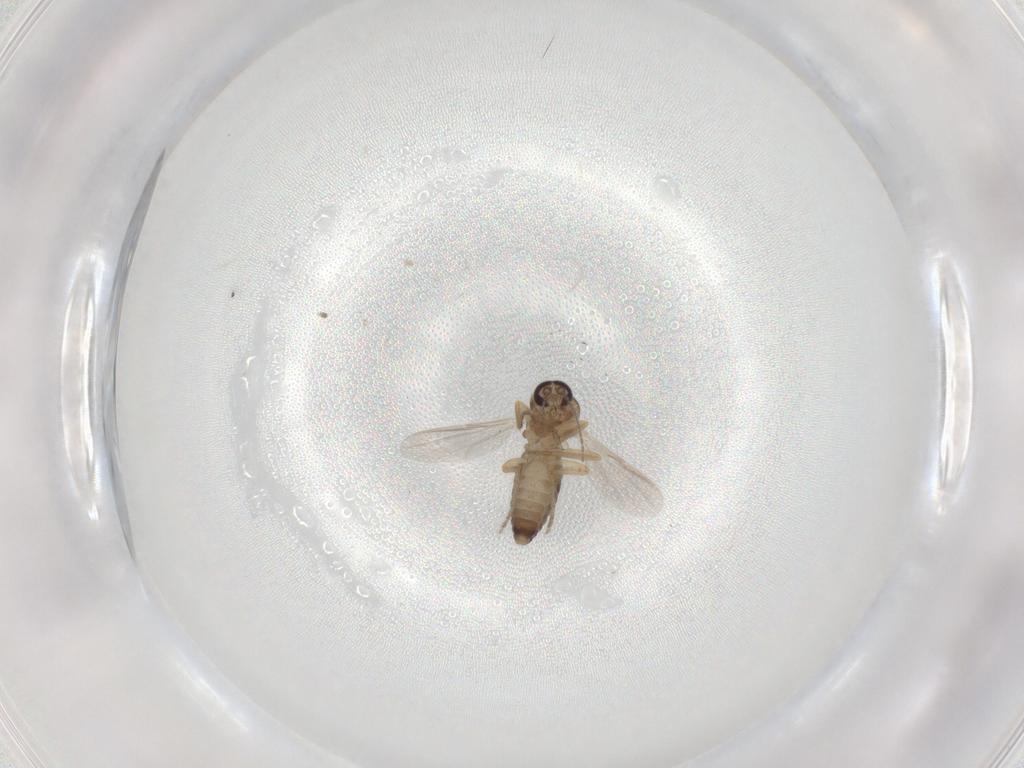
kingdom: Animalia
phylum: Arthropoda
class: Insecta
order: Diptera
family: Ceratopogonidae
